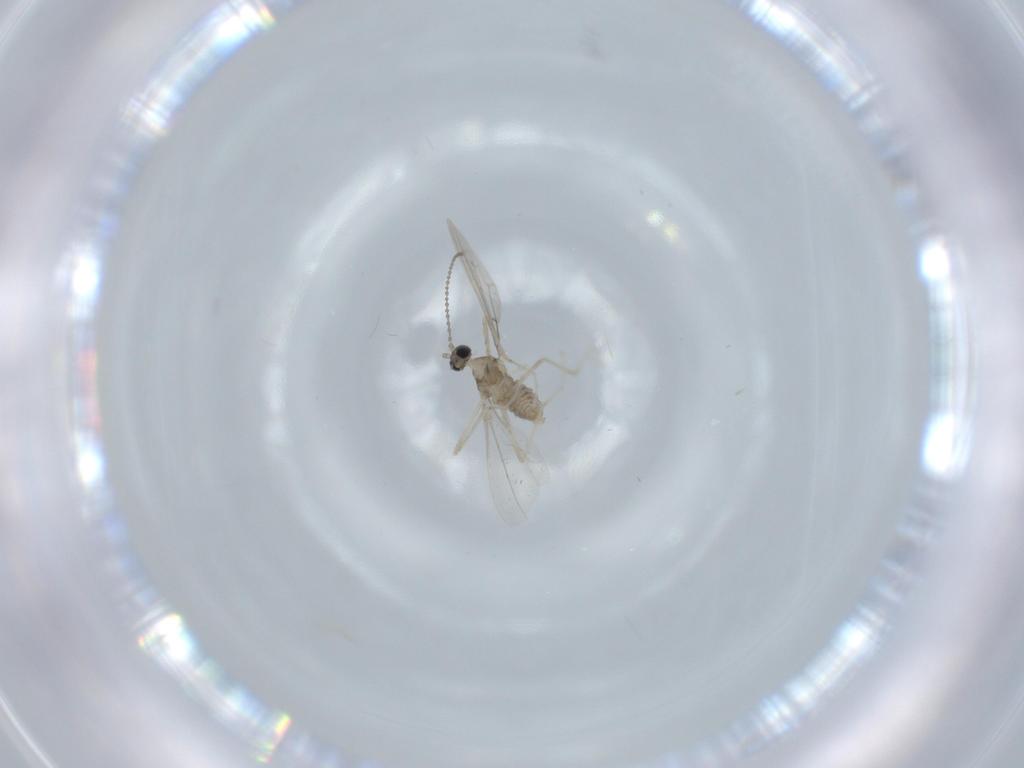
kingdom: Animalia
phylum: Arthropoda
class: Insecta
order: Diptera
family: Cecidomyiidae
